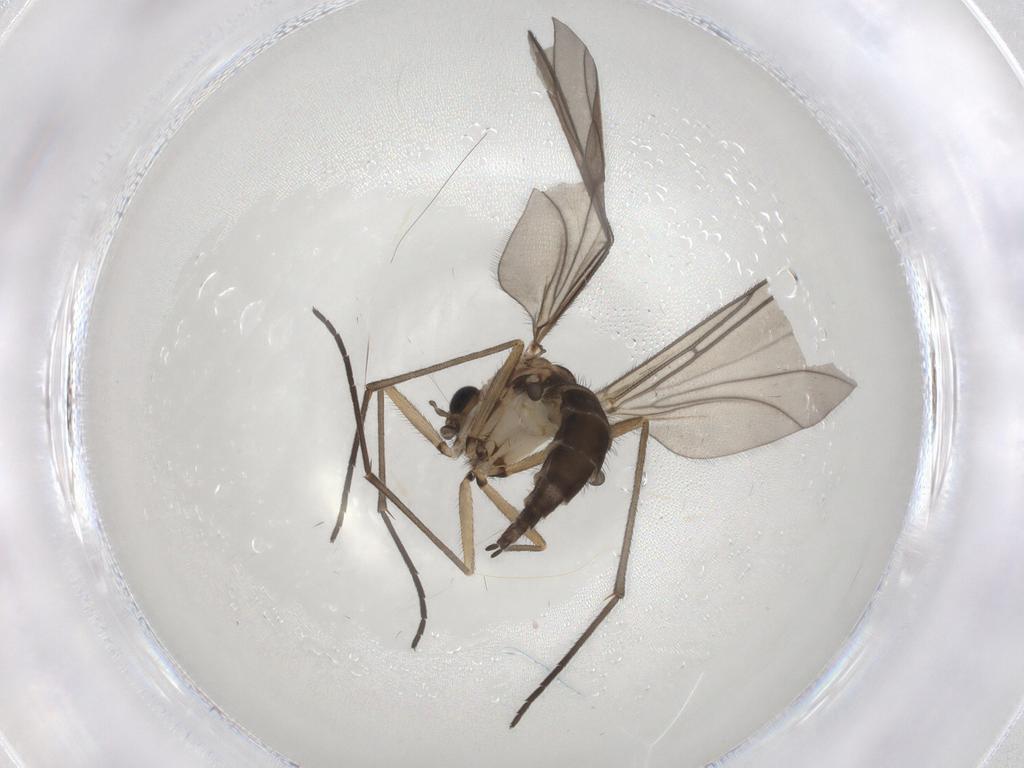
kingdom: Animalia
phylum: Arthropoda
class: Insecta
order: Diptera
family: Sciaridae
